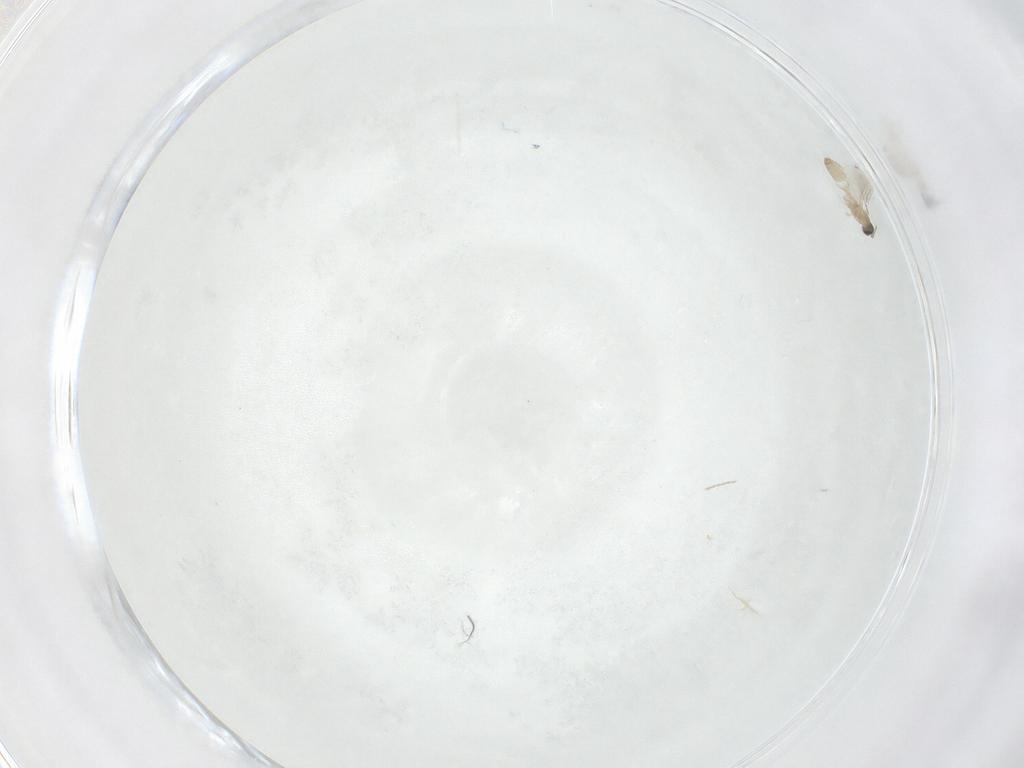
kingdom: Animalia
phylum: Arthropoda
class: Insecta
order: Diptera
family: Cecidomyiidae
